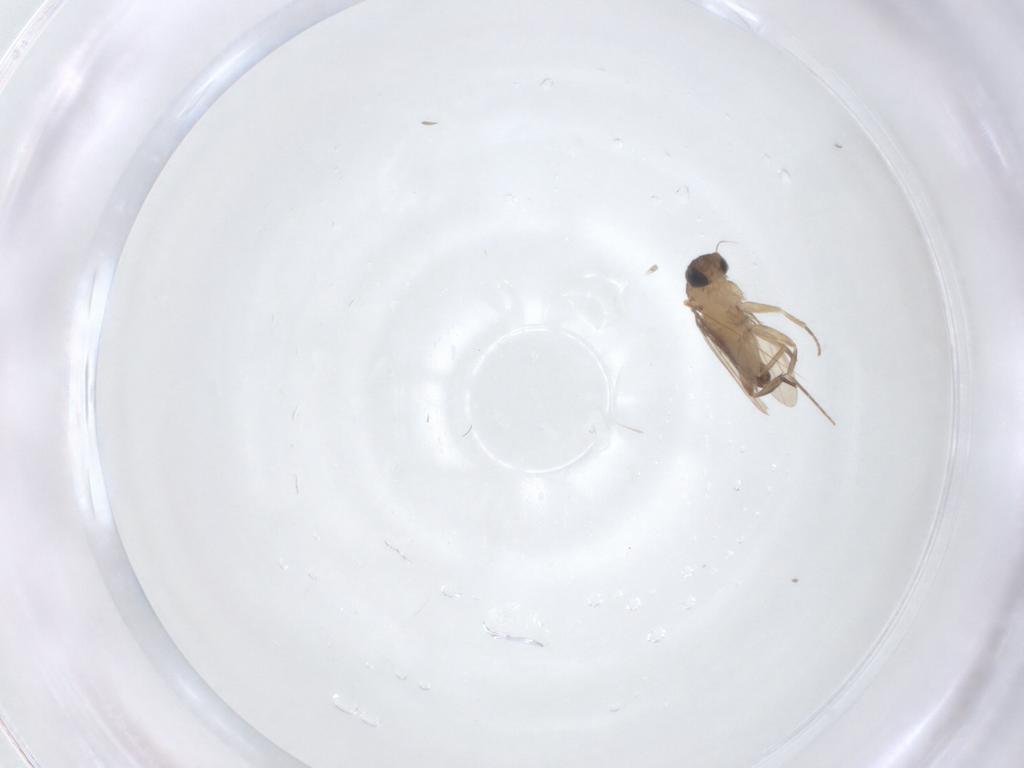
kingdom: Animalia
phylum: Arthropoda
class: Insecta
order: Diptera
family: Phoridae
